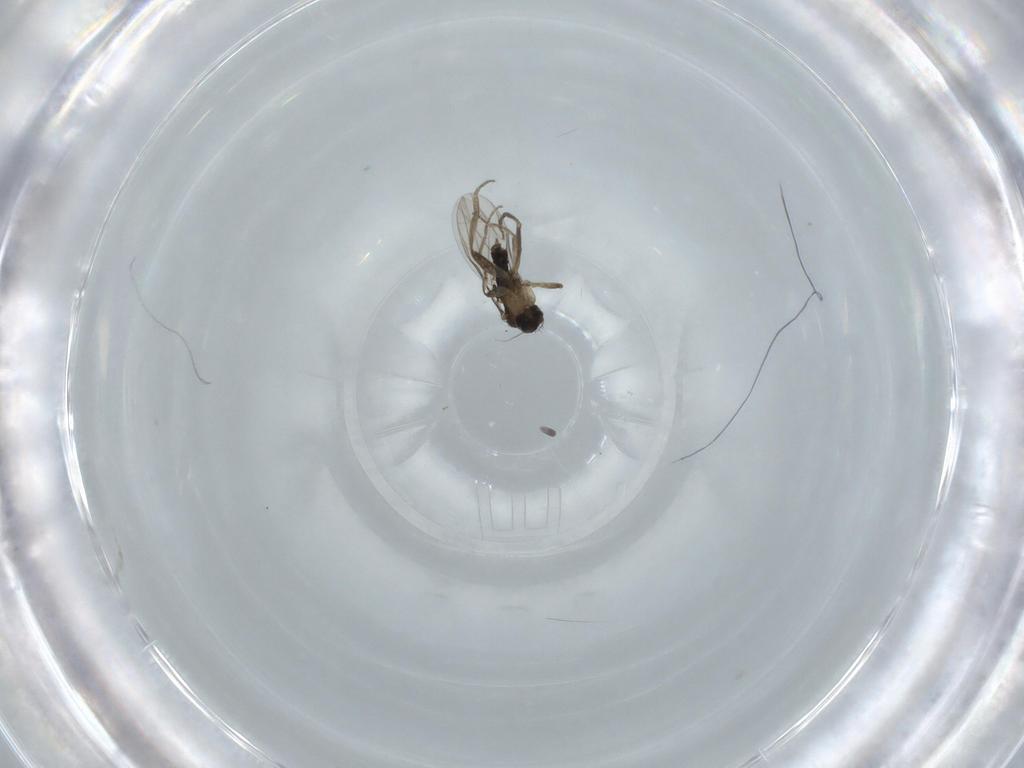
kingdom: Animalia
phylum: Arthropoda
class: Insecta
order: Diptera
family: Phoridae
